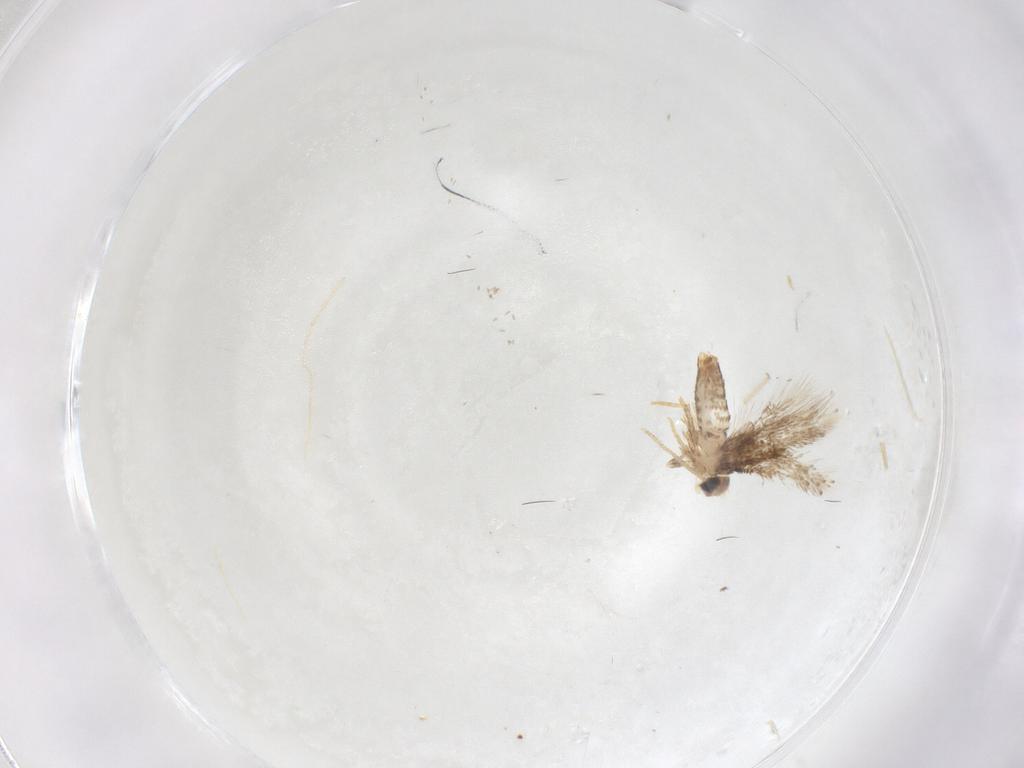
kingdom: Animalia
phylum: Arthropoda
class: Insecta
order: Lepidoptera
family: Nepticulidae
